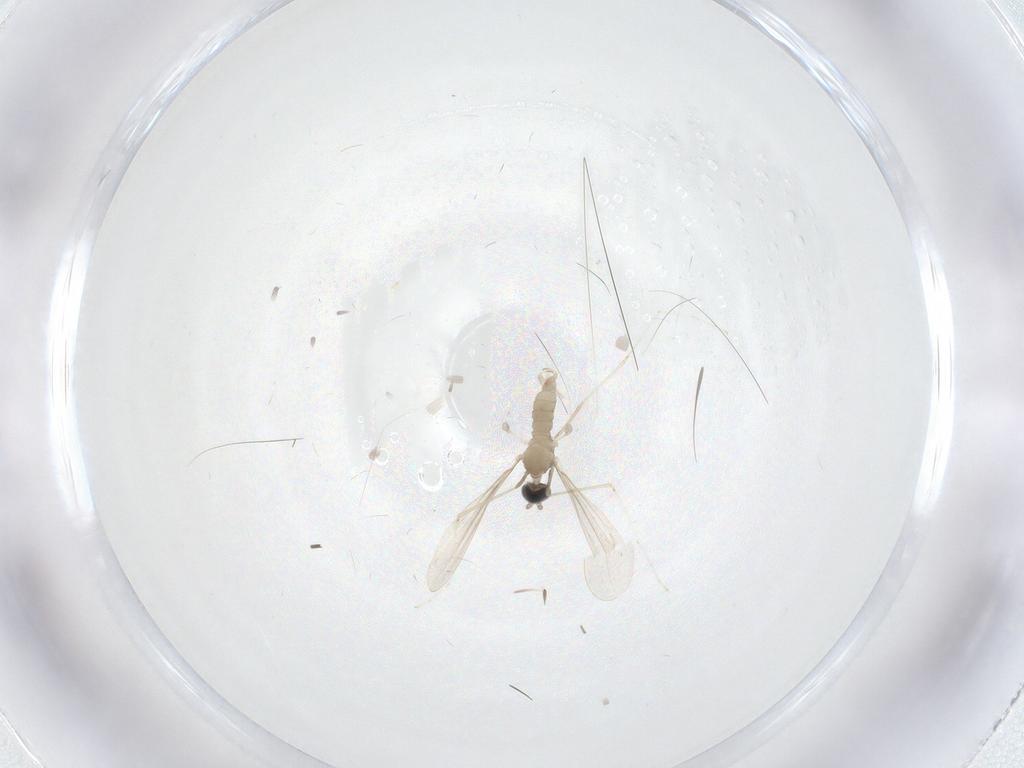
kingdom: Animalia
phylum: Arthropoda
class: Insecta
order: Diptera
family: Cecidomyiidae
